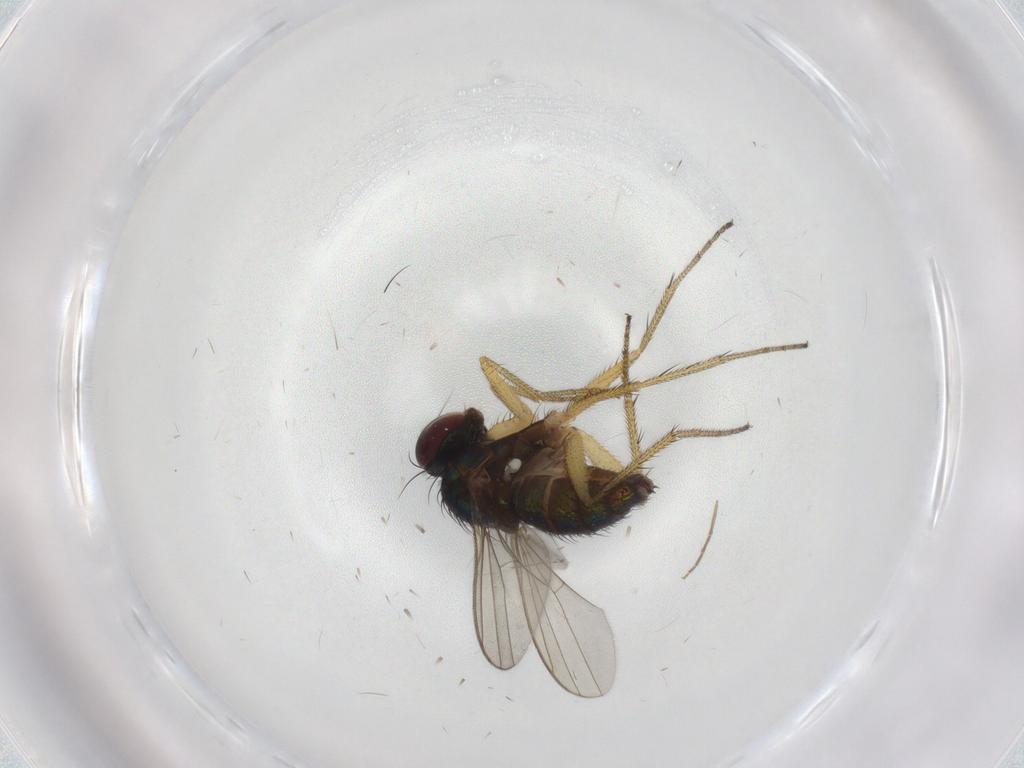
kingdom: Animalia
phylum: Arthropoda
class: Insecta
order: Diptera
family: Dolichopodidae
